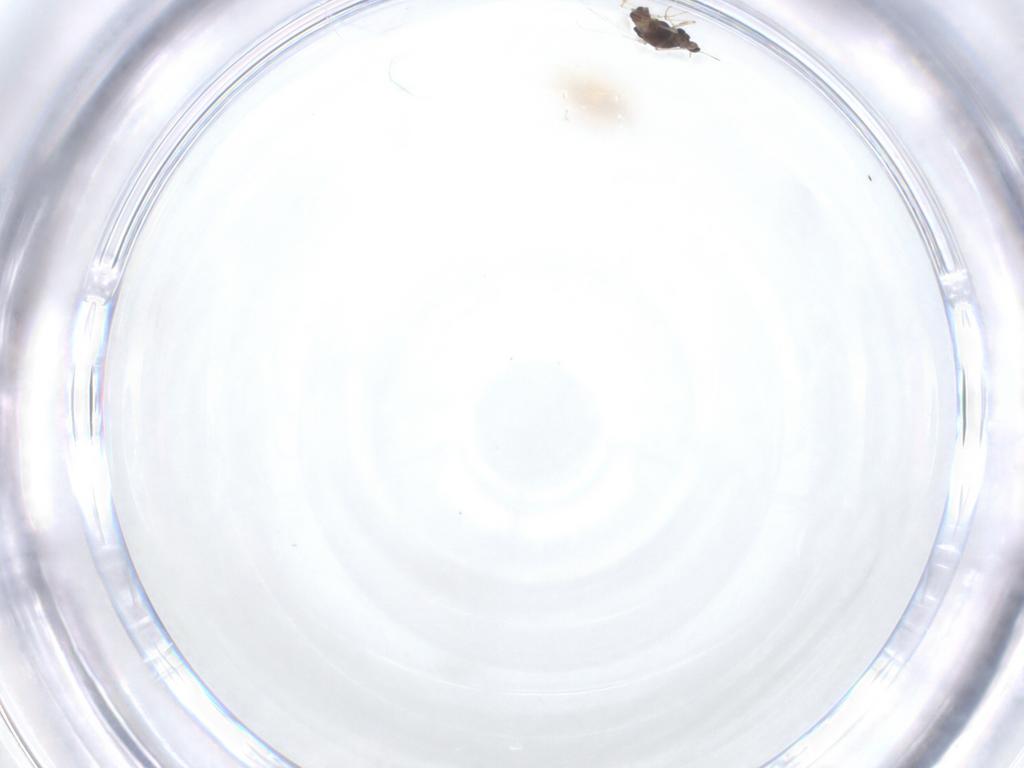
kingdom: Animalia
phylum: Arthropoda
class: Insecta
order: Diptera
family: Chironomidae
